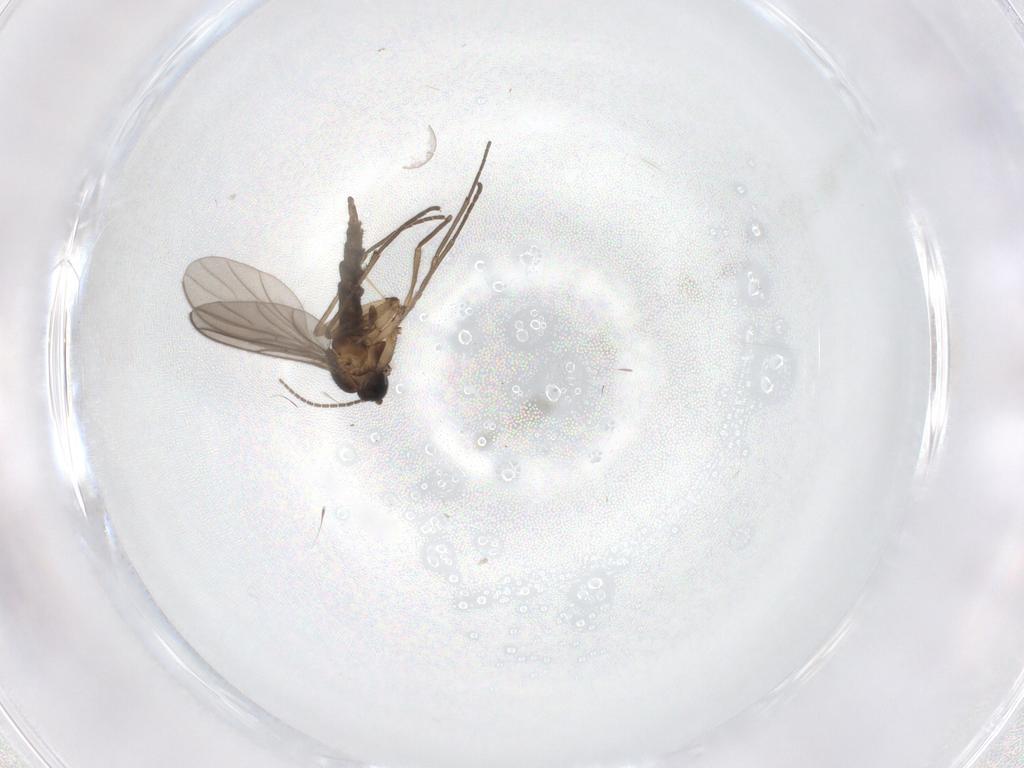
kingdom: Animalia
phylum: Arthropoda
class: Insecta
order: Diptera
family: Sciaridae
